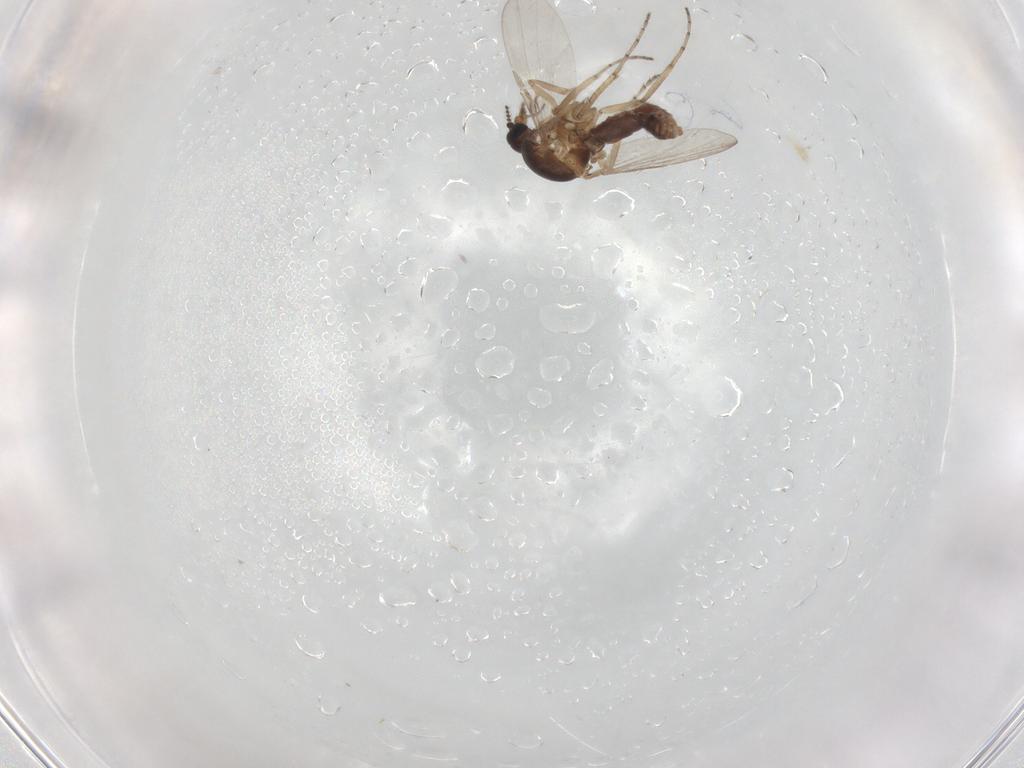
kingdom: Animalia
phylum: Arthropoda
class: Insecta
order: Diptera
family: Ceratopogonidae
